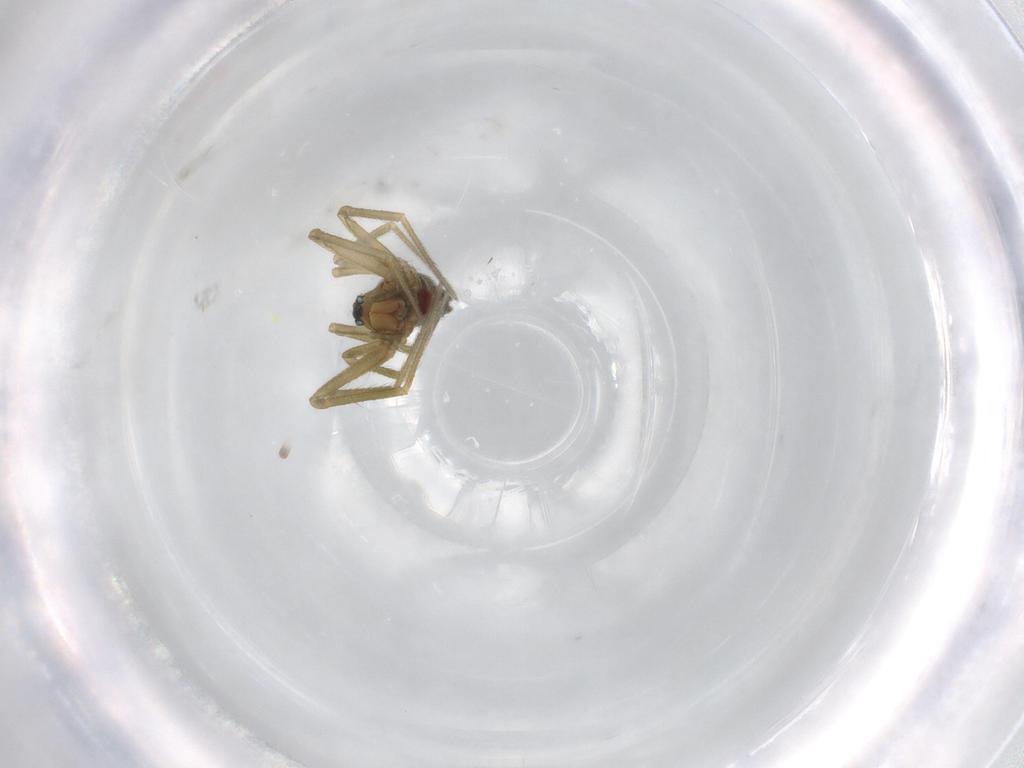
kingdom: Animalia
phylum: Arthropoda
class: Arachnida
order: Araneae
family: Linyphiidae
